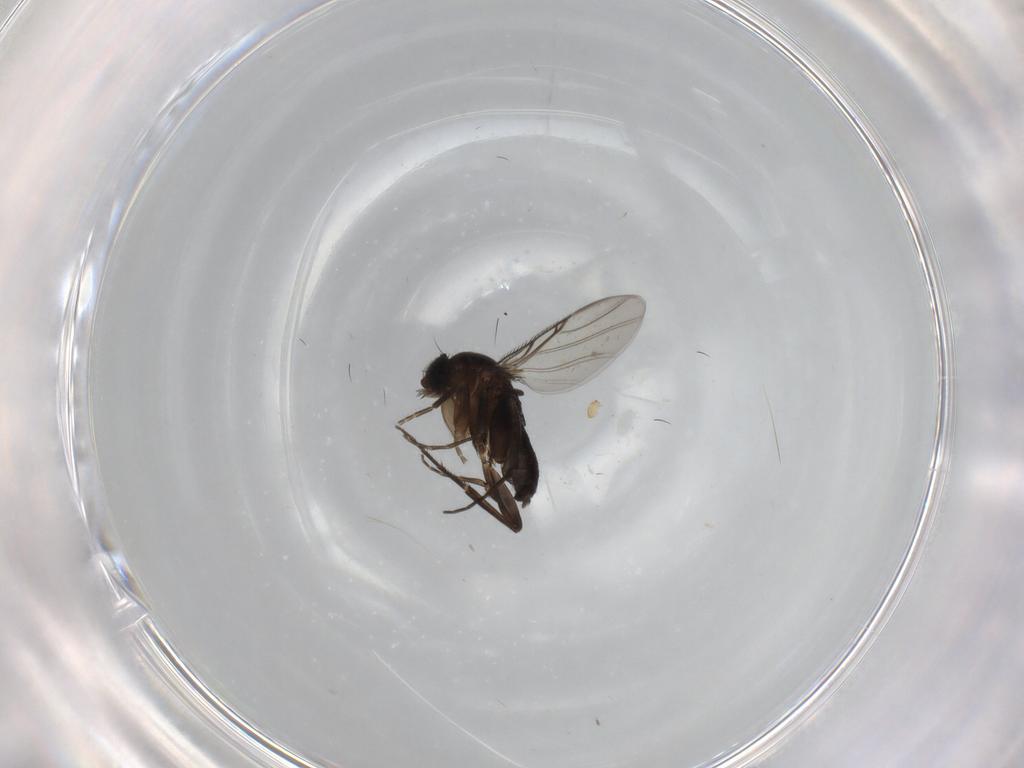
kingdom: Animalia
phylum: Arthropoda
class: Insecta
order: Diptera
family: Phoridae
